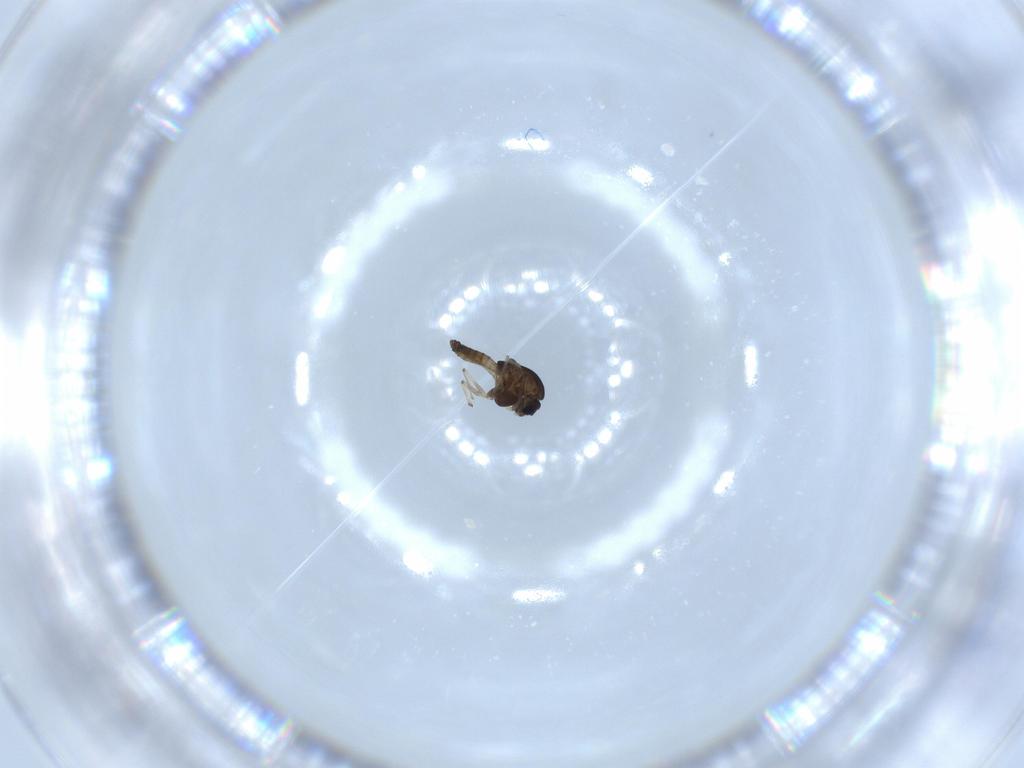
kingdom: Animalia
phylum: Arthropoda
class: Insecta
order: Diptera
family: Chironomidae
